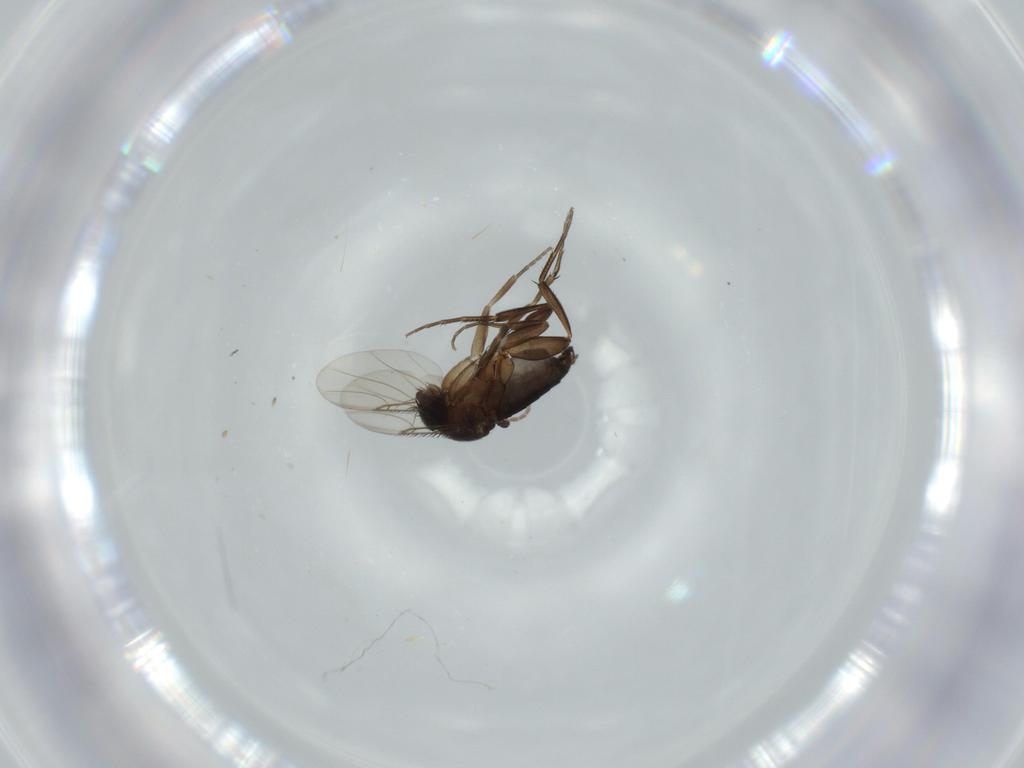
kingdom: Animalia
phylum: Arthropoda
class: Insecta
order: Diptera
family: Phoridae
